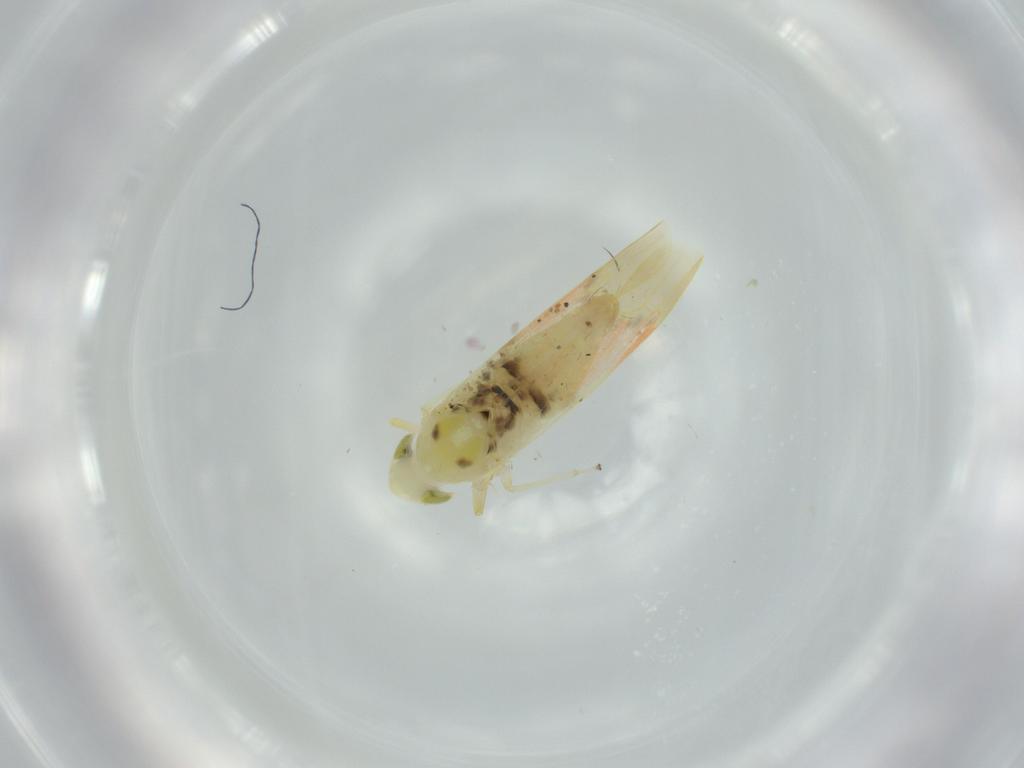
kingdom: Animalia
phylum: Arthropoda
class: Insecta
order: Hemiptera
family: Cicadellidae
